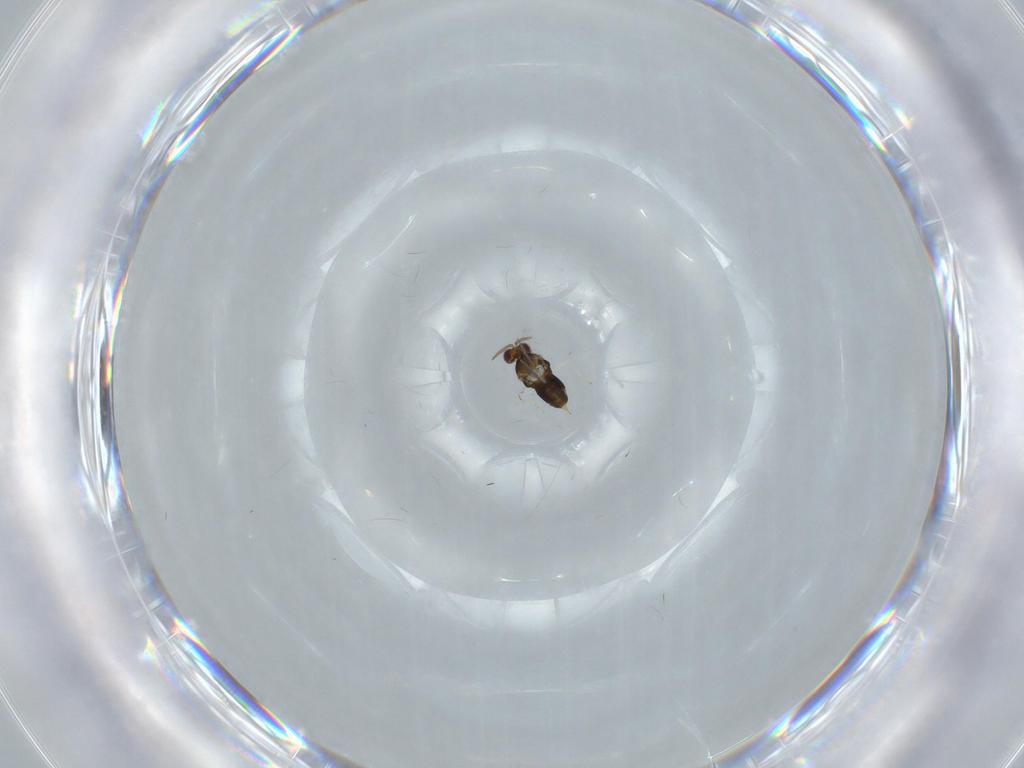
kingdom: Animalia
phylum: Arthropoda
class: Insecta
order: Hymenoptera
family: Aphelinidae
